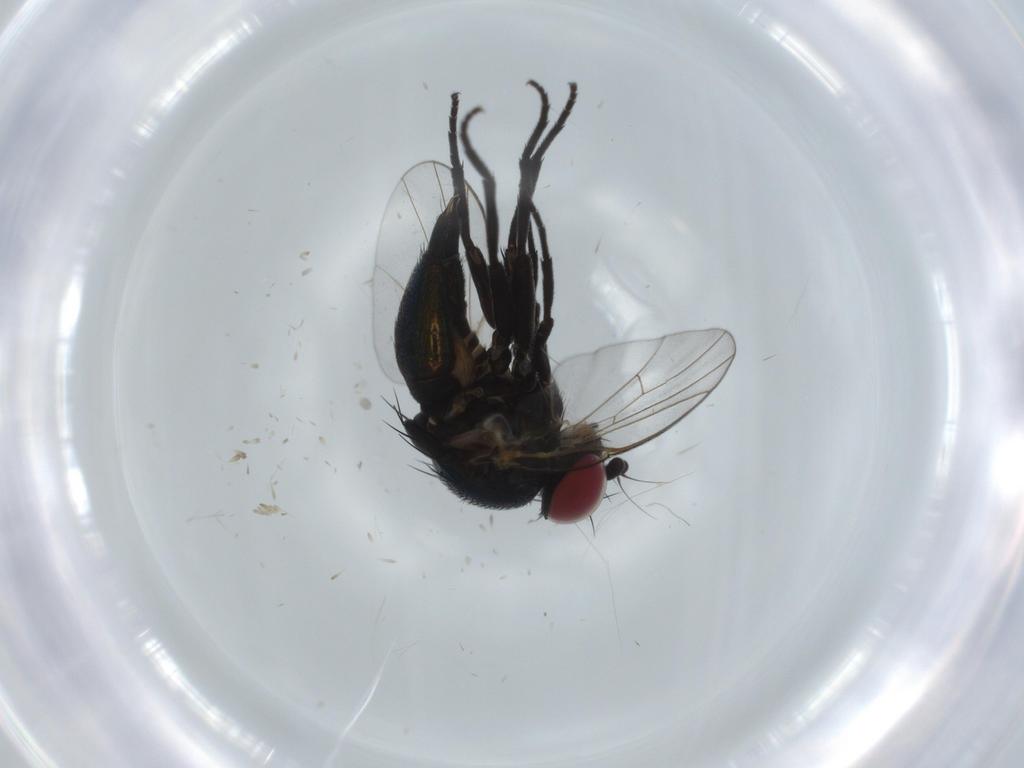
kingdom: Animalia
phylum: Arthropoda
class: Insecta
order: Diptera
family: Agromyzidae
